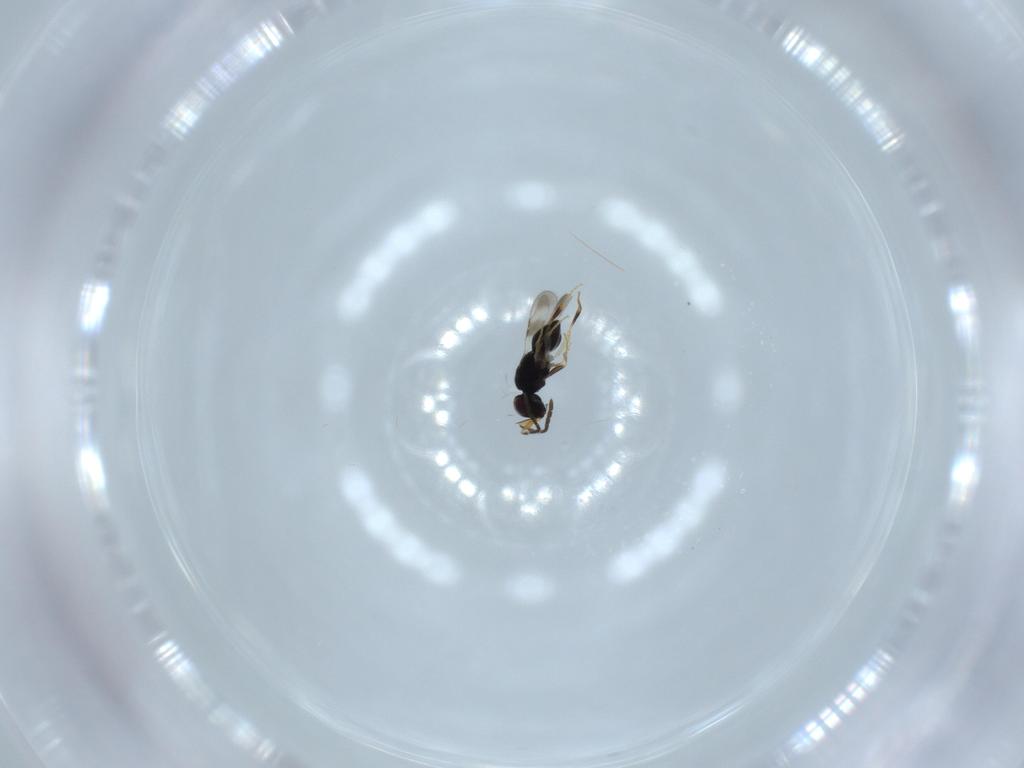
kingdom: Animalia
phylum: Arthropoda
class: Insecta
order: Hymenoptera
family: Ceraphronidae
